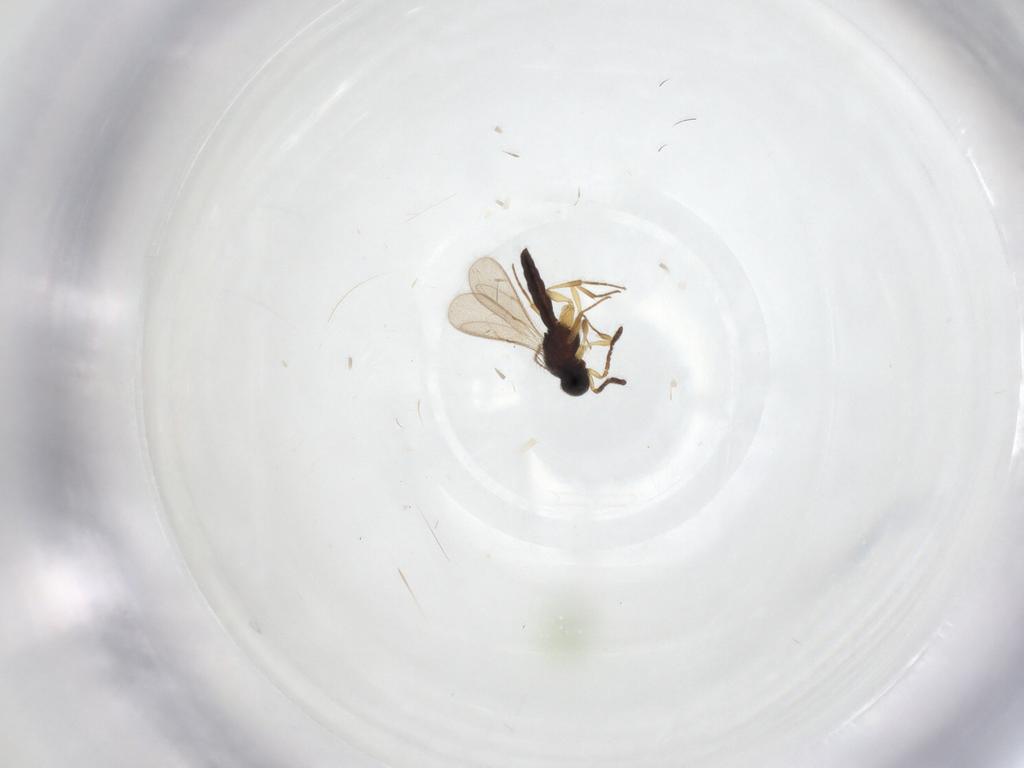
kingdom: Animalia
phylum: Arthropoda
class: Insecta
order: Hymenoptera
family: Scelionidae
